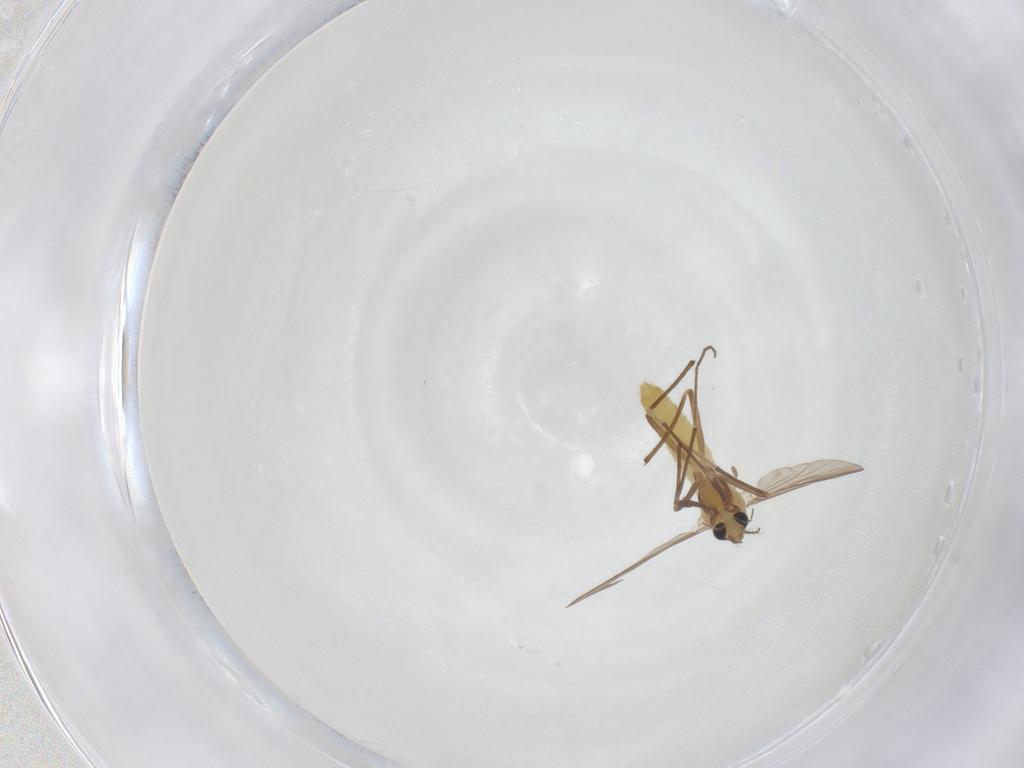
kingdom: Animalia
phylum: Arthropoda
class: Insecta
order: Diptera
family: Chironomidae
